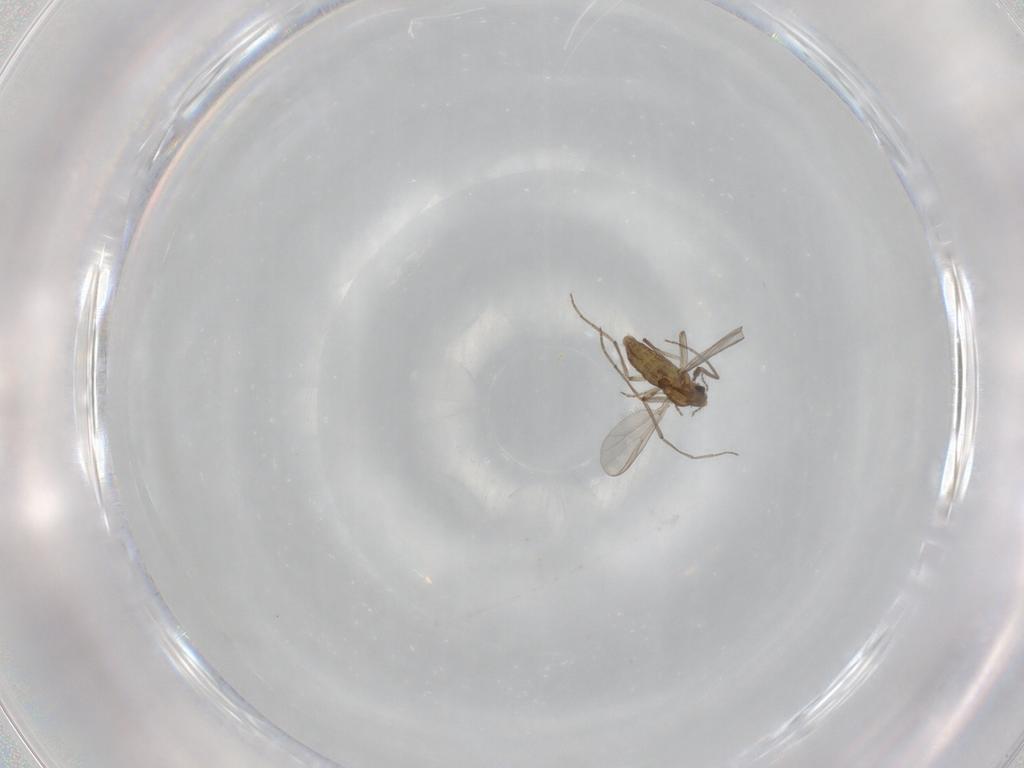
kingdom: Animalia
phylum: Arthropoda
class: Insecta
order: Diptera
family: Chironomidae
